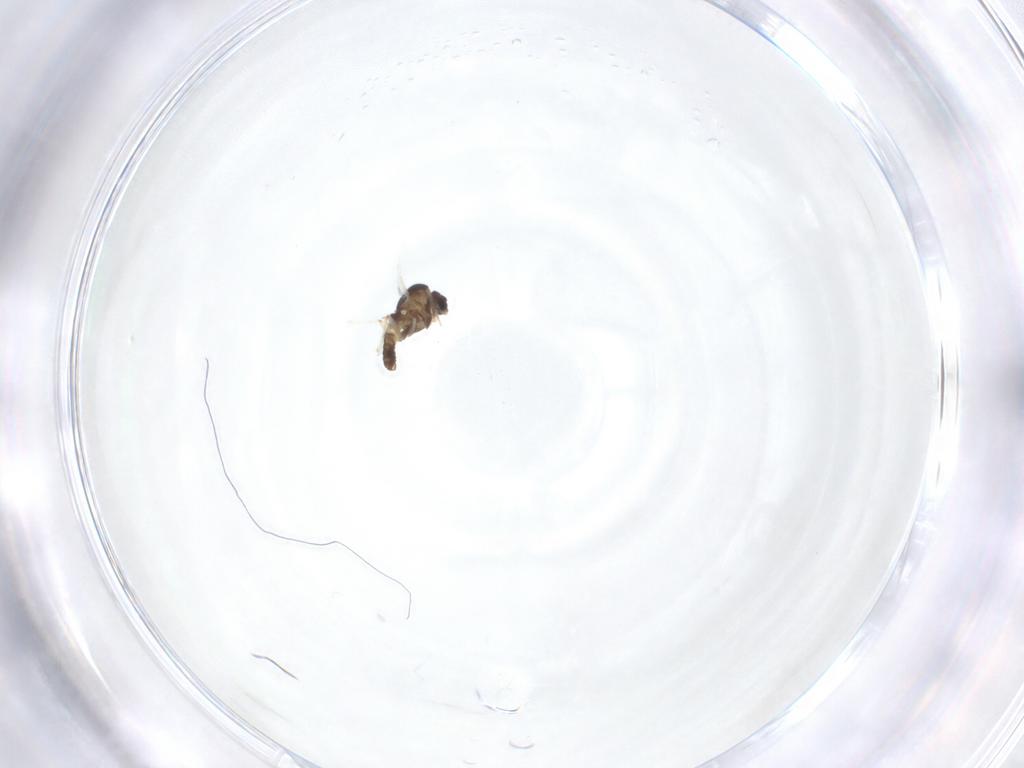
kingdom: Animalia
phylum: Arthropoda
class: Insecta
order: Diptera
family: Chironomidae
